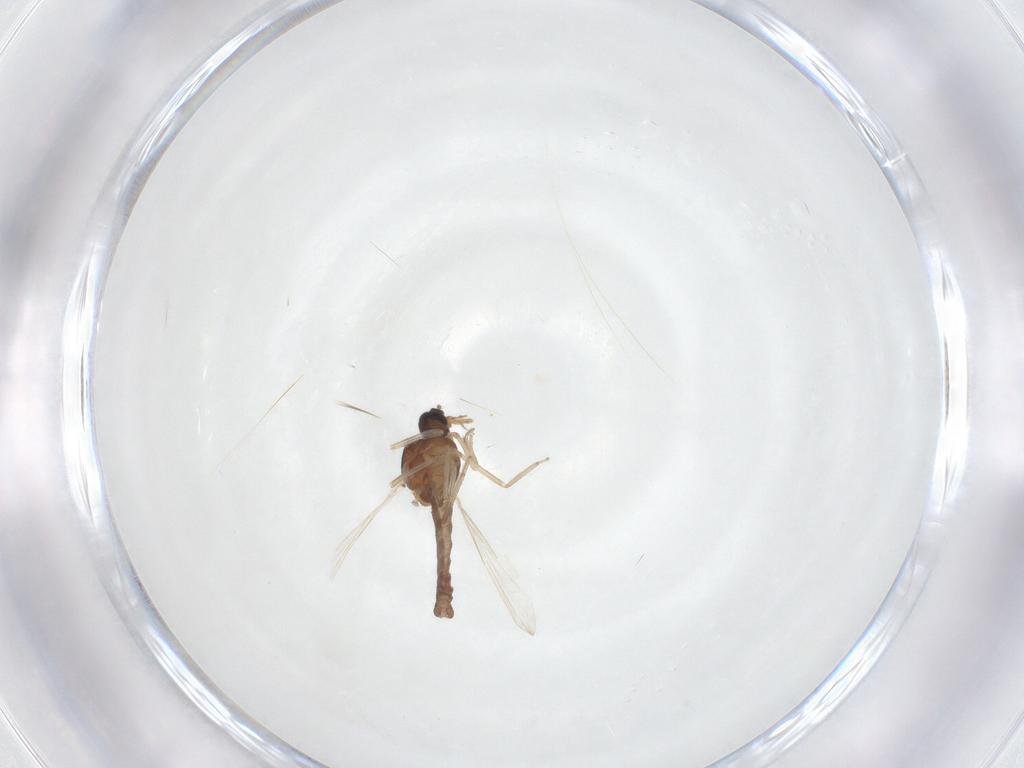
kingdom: Animalia
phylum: Arthropoda
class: Insecta
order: Diptera
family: Ceratopogonidae
